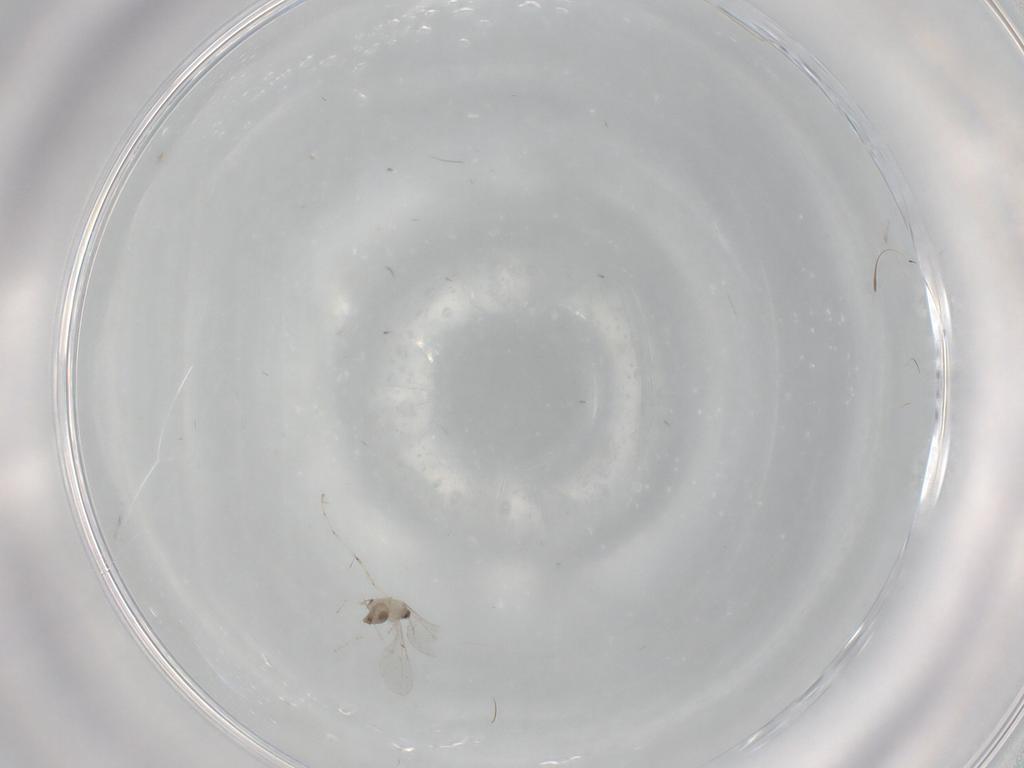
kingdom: Animalia
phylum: Arthropoda
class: Insecta
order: Diptera
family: Cecidomyiidae
